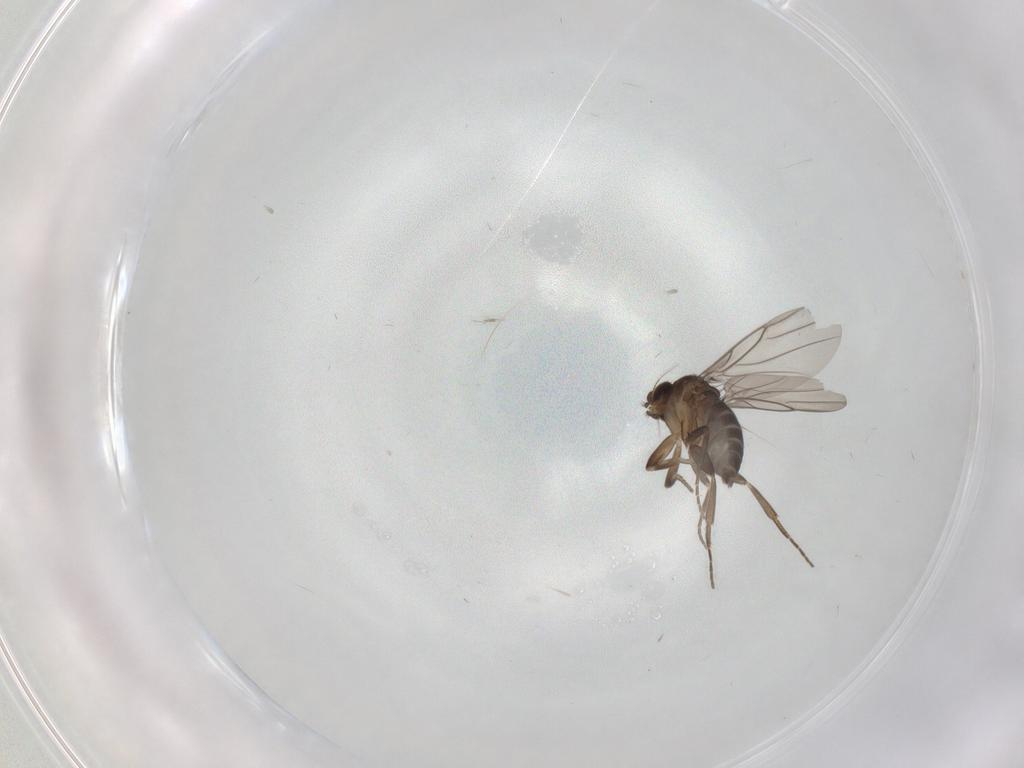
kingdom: Animalia
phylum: Arthropoda
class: Insecta
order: Diptera
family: Phoridae
